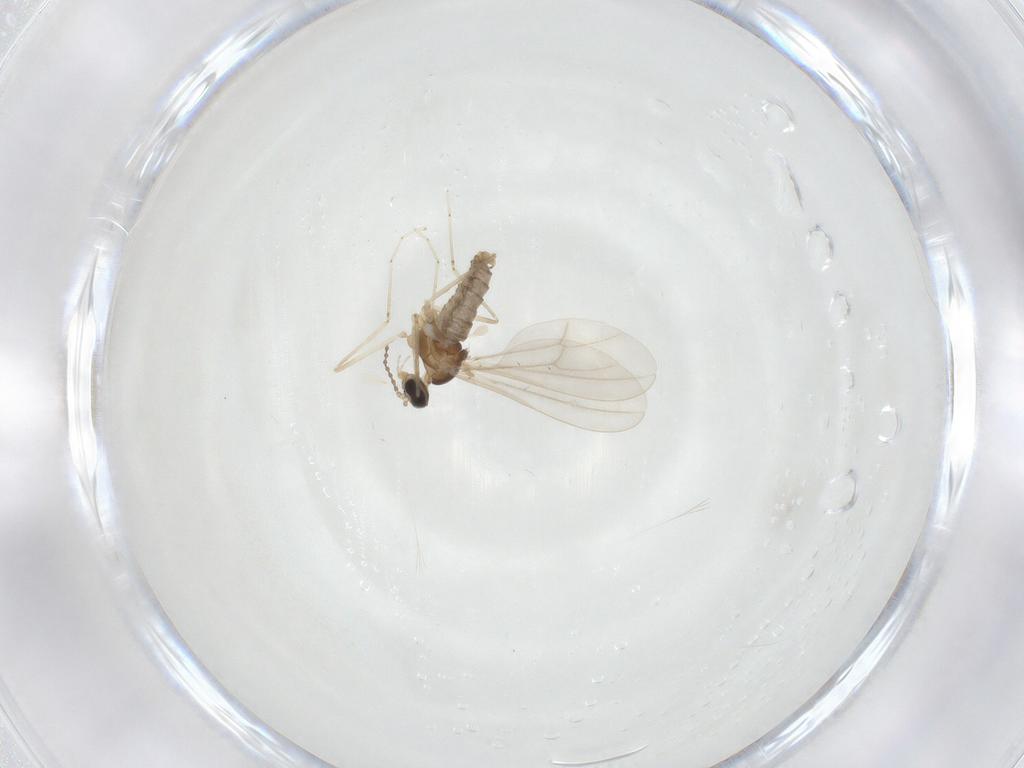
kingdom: Animalia
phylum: Arthropoda
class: Insecta
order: Diptera
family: Cecidomyiidae
